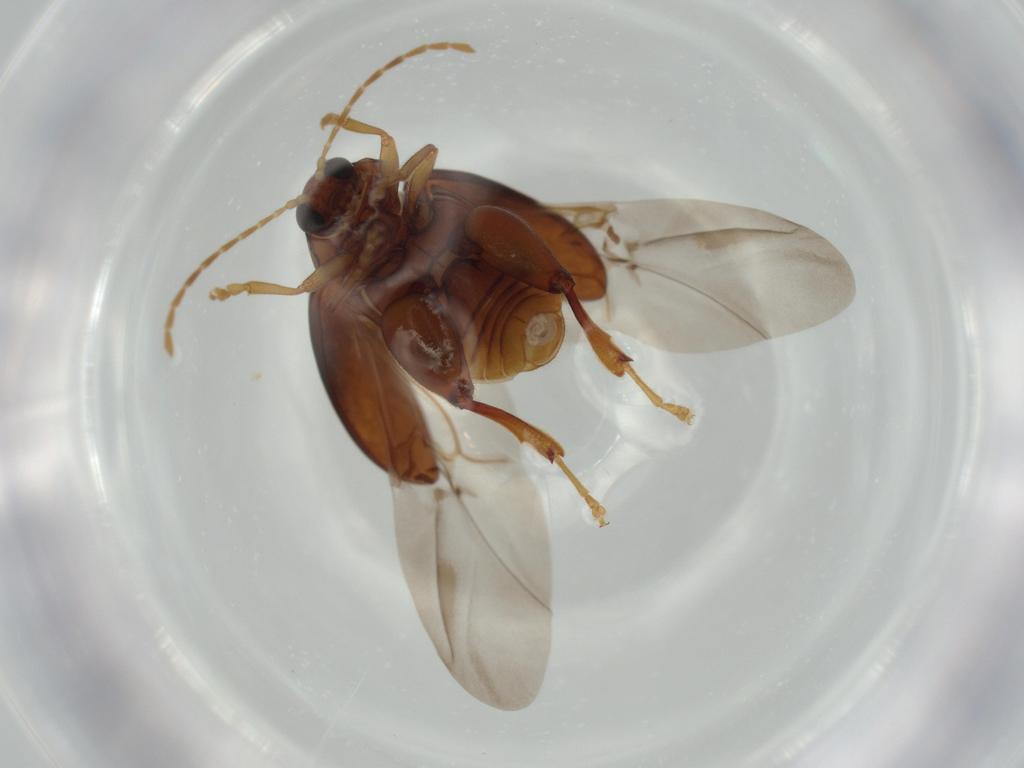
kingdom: Animalia
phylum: Arthropoda
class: Insecta
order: Coleoptera
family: Chrysomelidae
